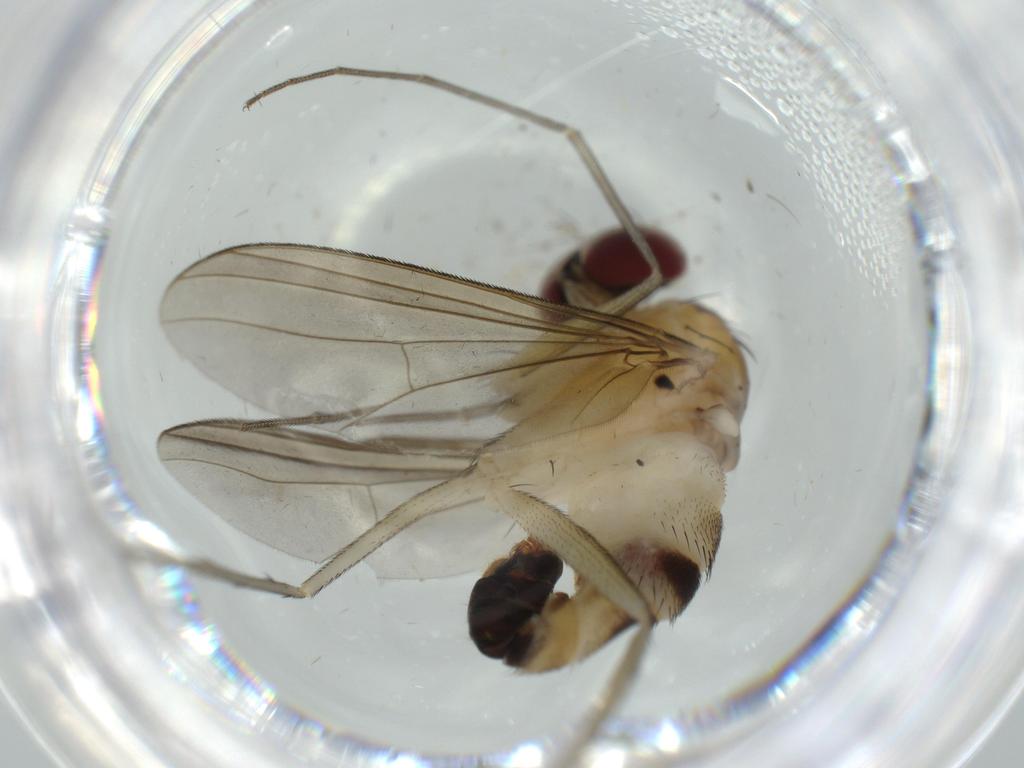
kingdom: Animalia
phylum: Arthropoda
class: Insecta
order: Diptera
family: Dolichopodidae
